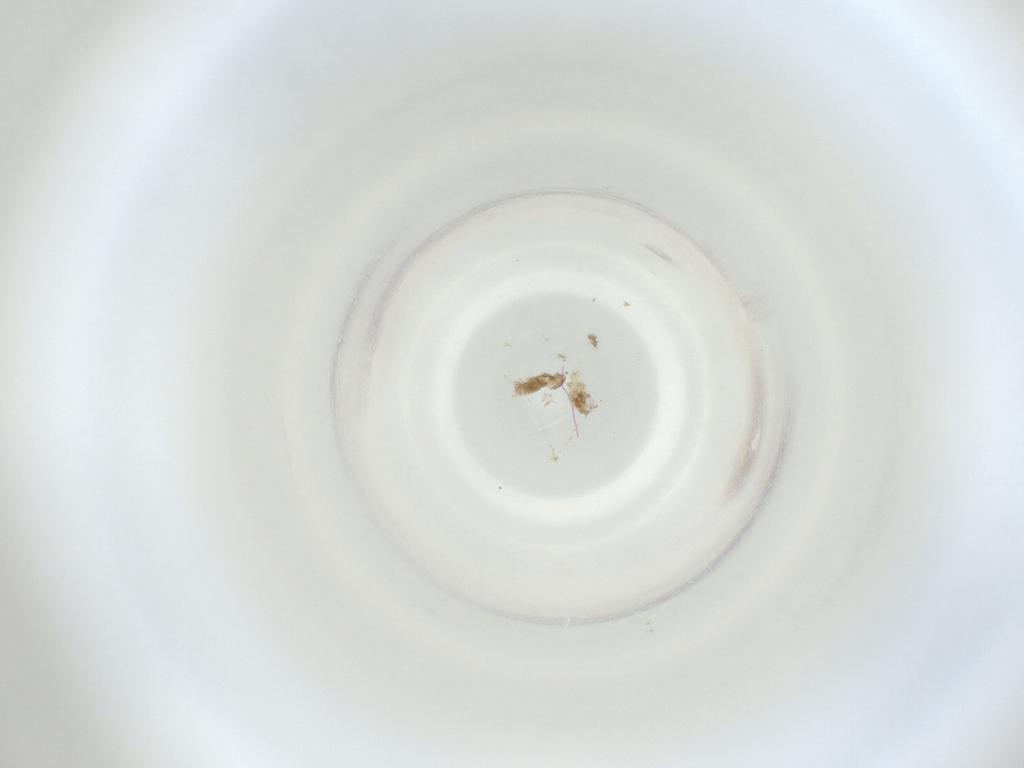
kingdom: Animalia
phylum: Arthropoda
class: Insecta
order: Diptera
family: Cecidomyiidae
